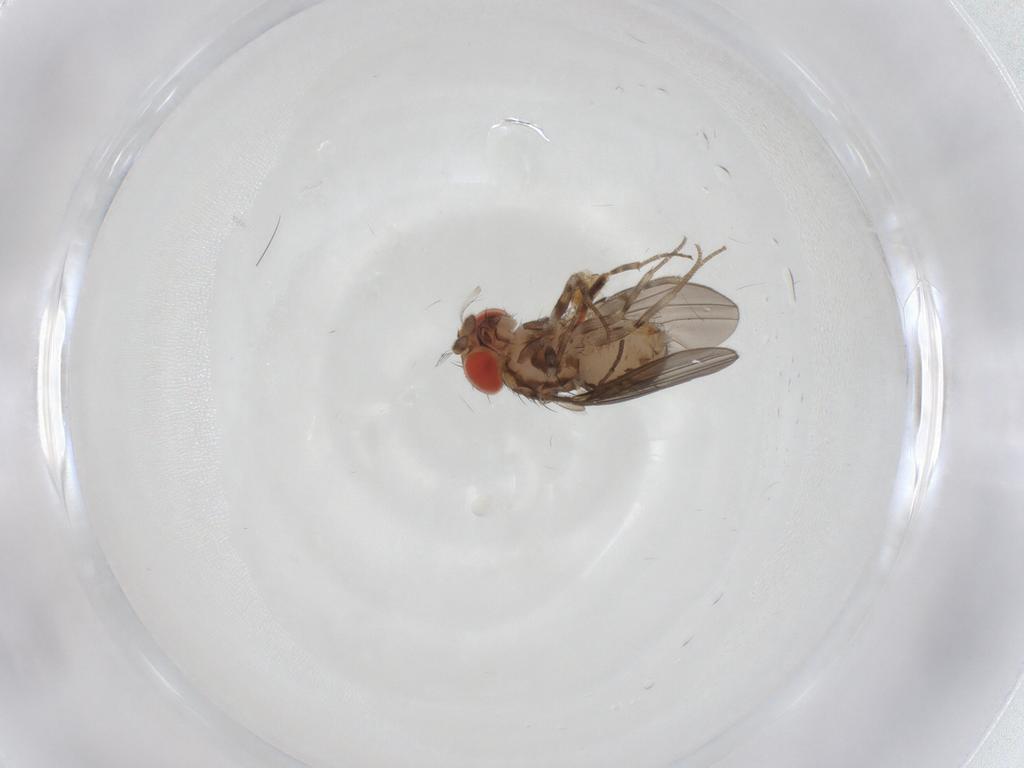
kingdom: Animalia
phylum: Arthropoda
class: Insecta
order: Diptera
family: Drosophilidae
